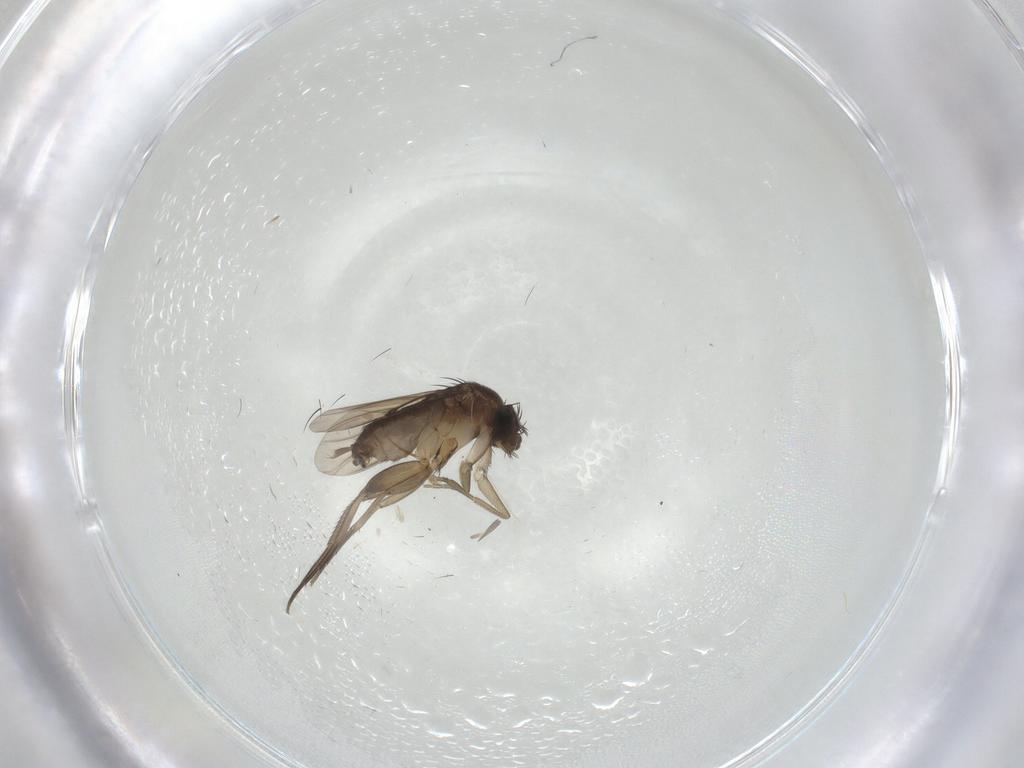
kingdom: Animalia
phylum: Arthropoda
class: Insecta
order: Diptera
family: Phoridae
